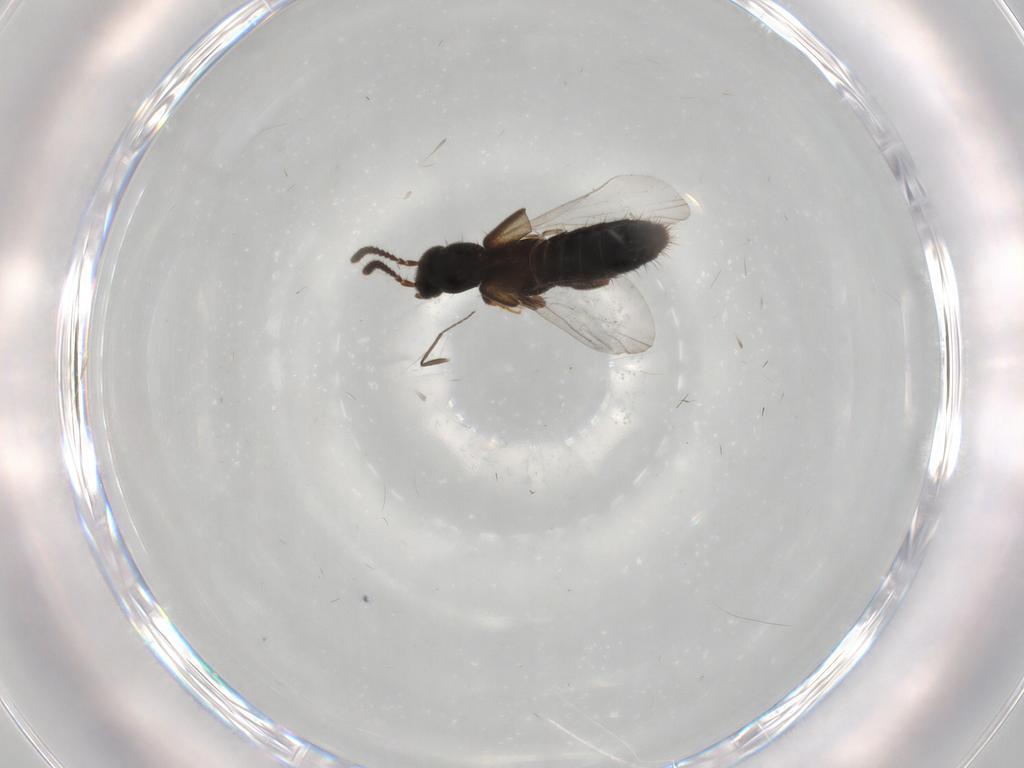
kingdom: Animalia
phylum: Arthropoda
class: Insecta
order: Coleoptera
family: Staphylinidae
